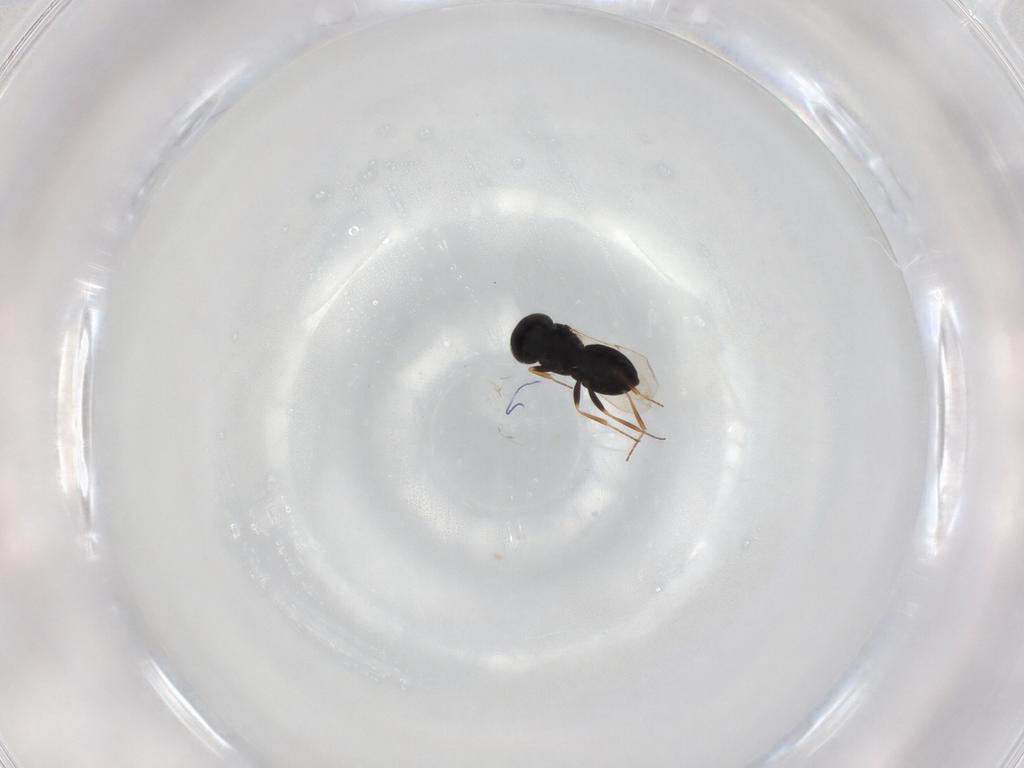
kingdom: Animalia
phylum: Arthropoda
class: Insecta
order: Hymenoptera
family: Scelionidae
